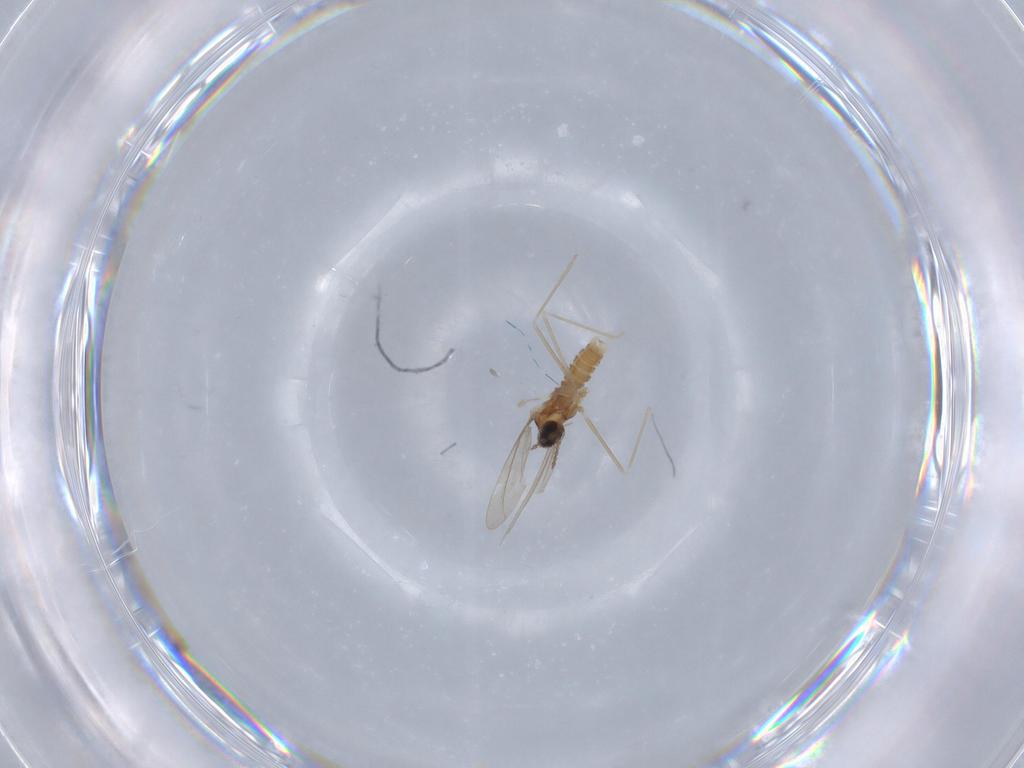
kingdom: Animalia
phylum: Arthropoda
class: Insecta
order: Diptera
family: Cecidomyiidae
